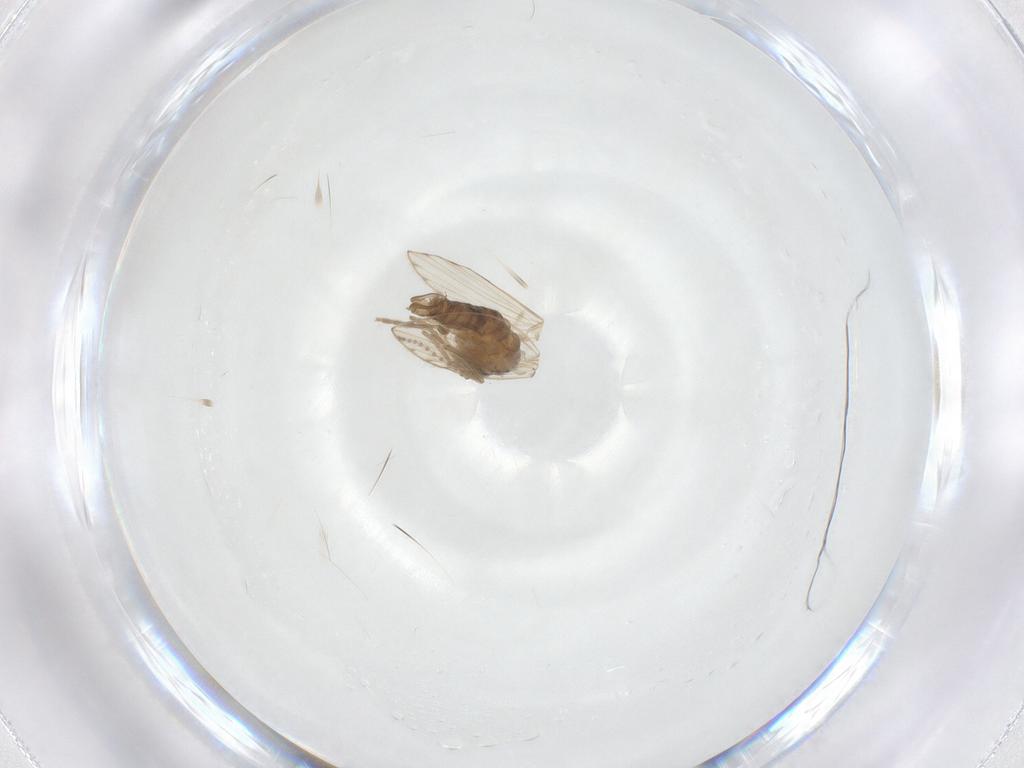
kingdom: Animalia
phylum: Arthropoda
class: Insecta
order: Diptera
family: Psychodidae
